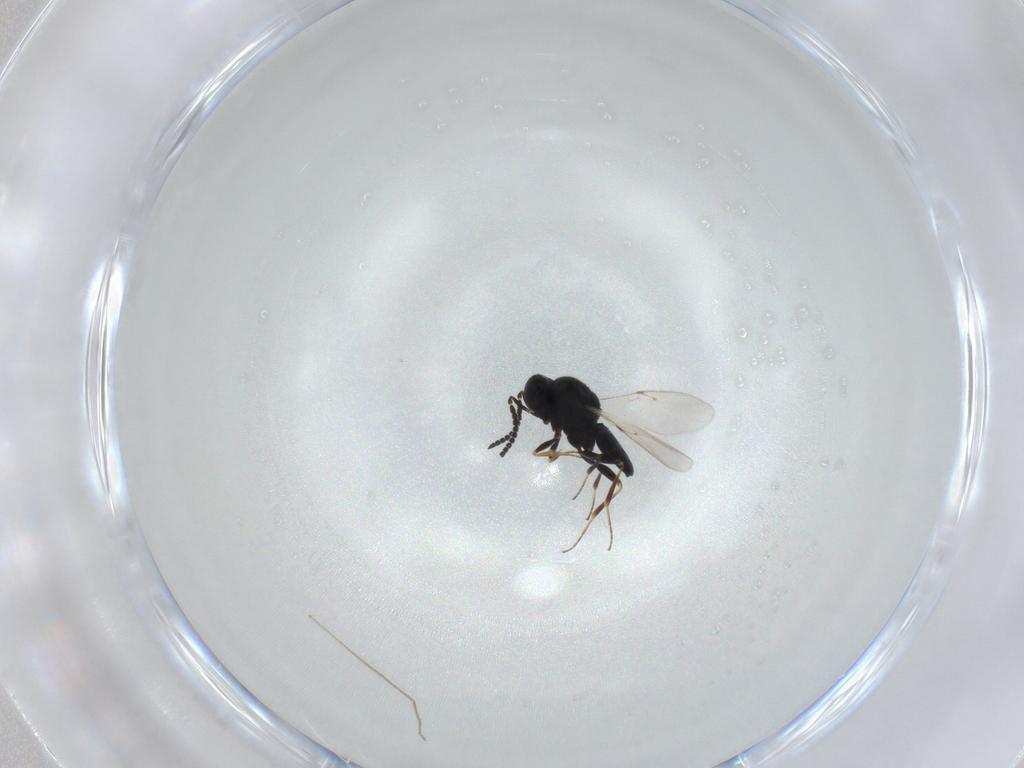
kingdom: Animalia
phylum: Arthropoda
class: Insecta
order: Hymenoptera
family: Scelionidae
